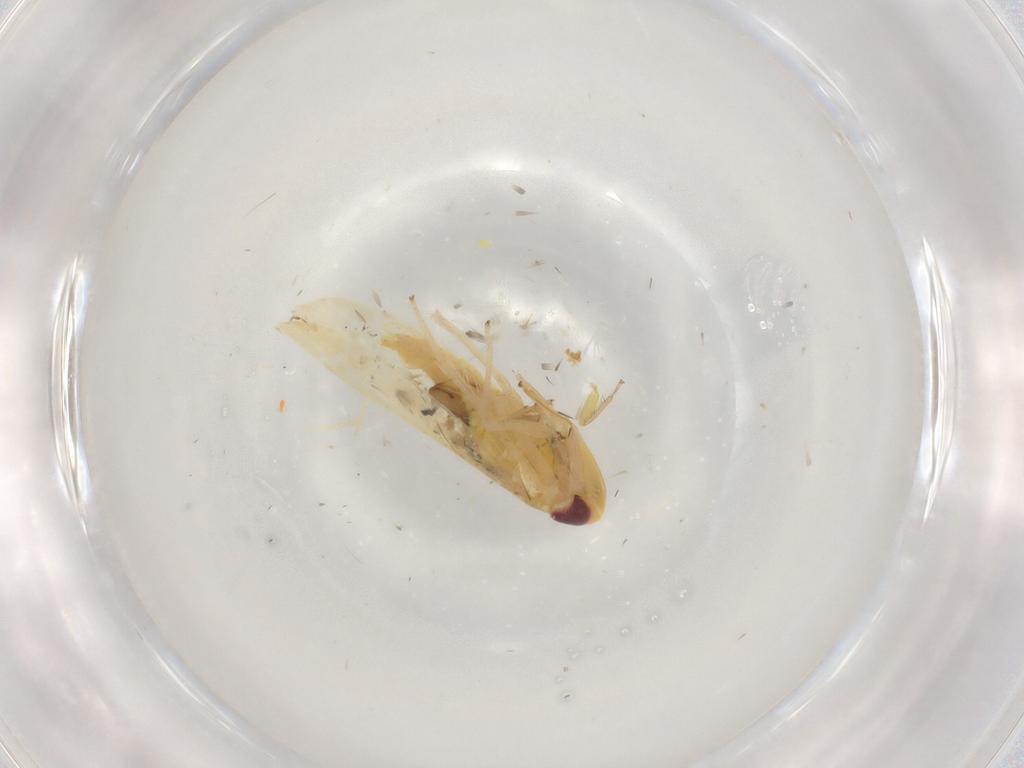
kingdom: Animalia
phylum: Arthropoda
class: Insecta
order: Hemiptera
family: Cicadellidae
